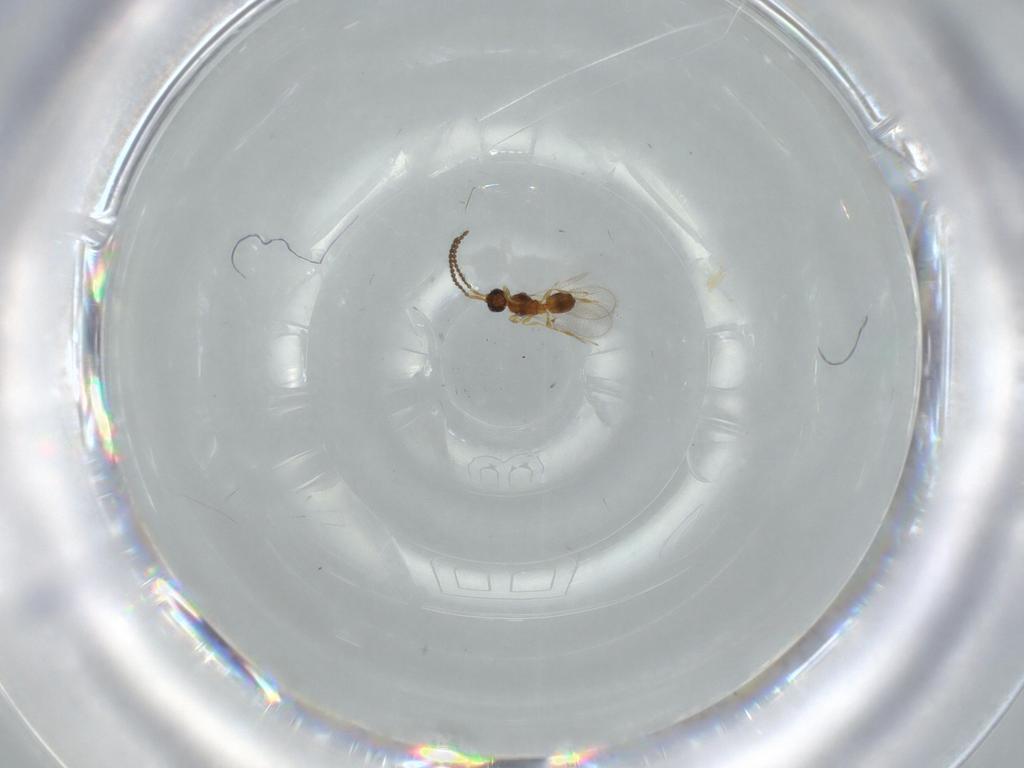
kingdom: Animalia
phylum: Arthropoda
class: Insecta
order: Hymenoptera
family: Diapriidae
